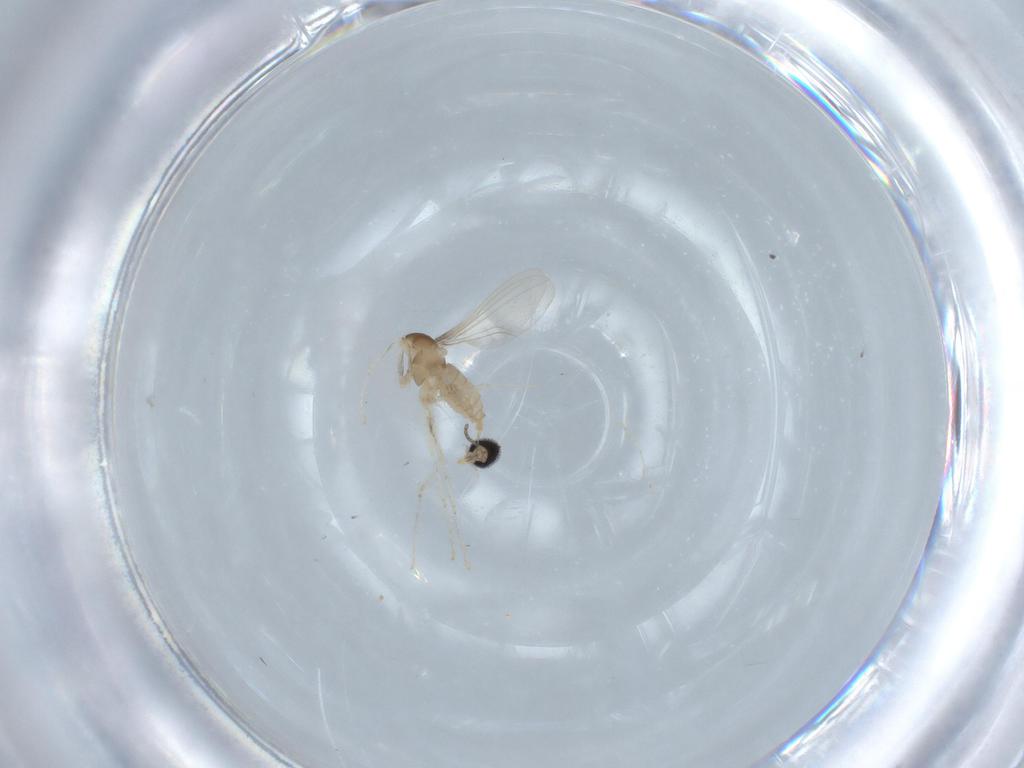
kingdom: Animalia
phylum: Arthropoda
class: Insecta
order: Diptera
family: Cecidomyiidae
